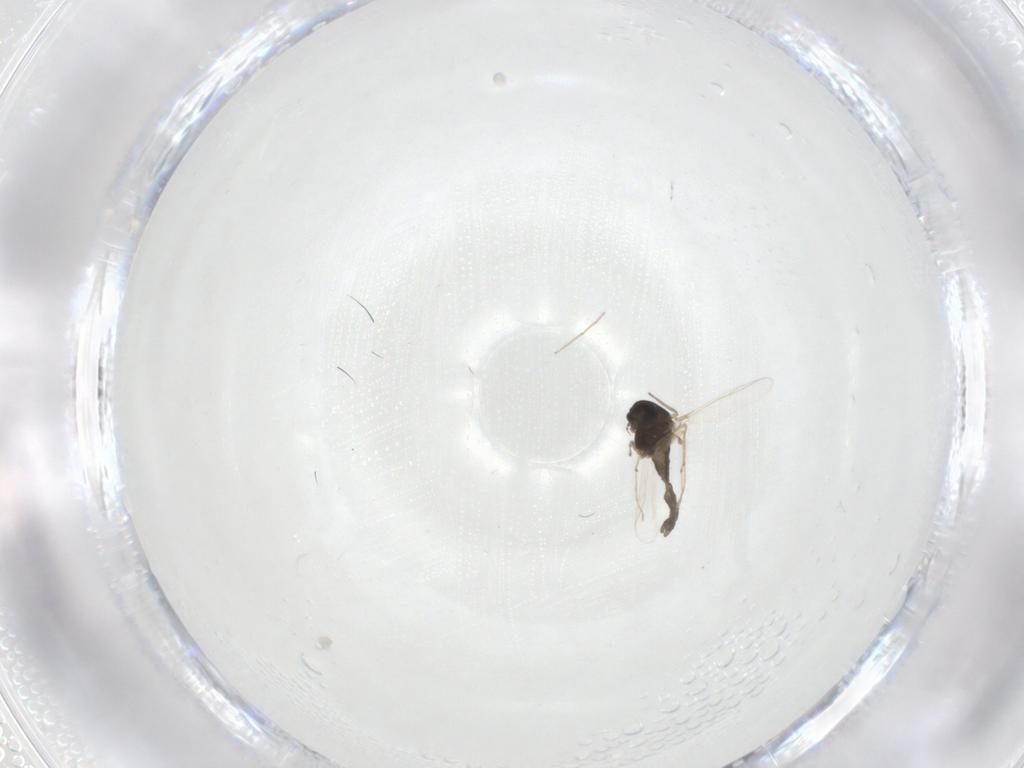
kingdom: Animalia
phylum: Arthropoda
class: Insecta
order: Diptera
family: Chironomidae
